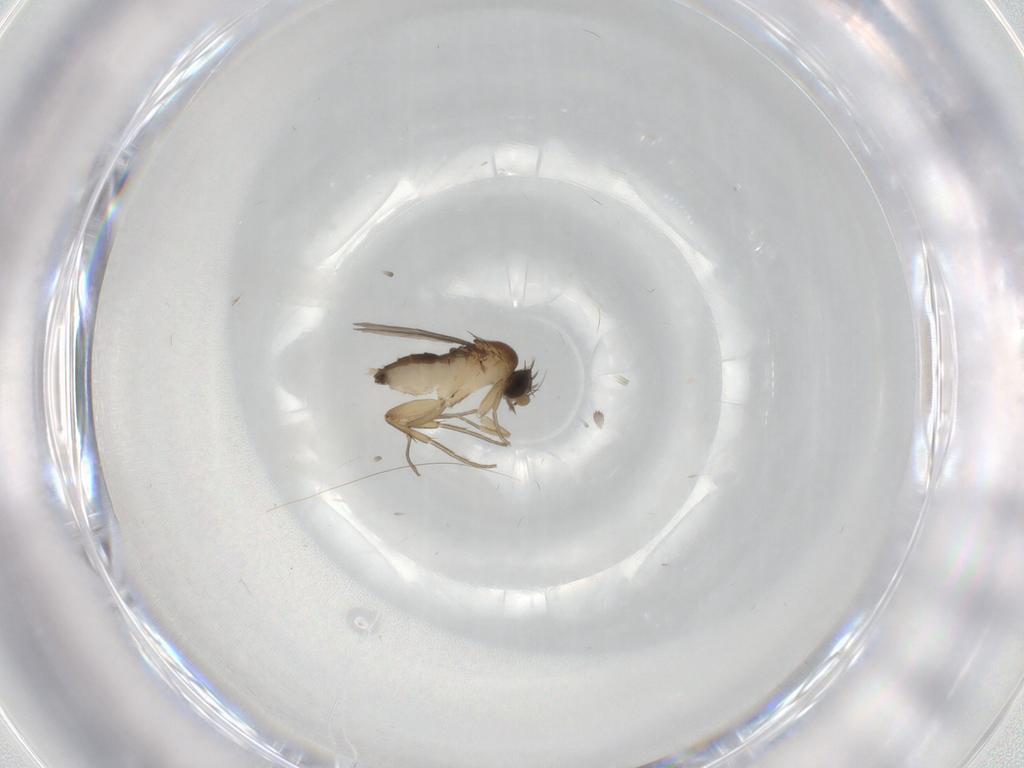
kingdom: Animalia
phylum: Arthropoda
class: Insecta
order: Diptera
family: Phoridae
